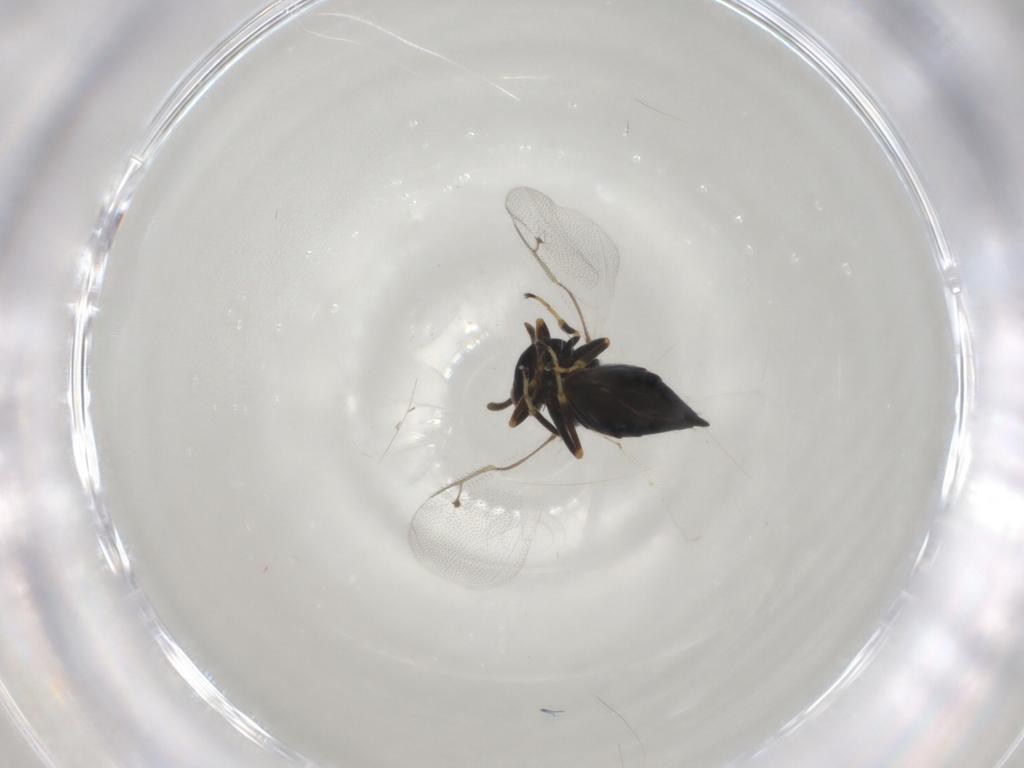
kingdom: Animalia
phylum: Arthropoda
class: Insecta
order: Hymenoptera
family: Pteromalidae
